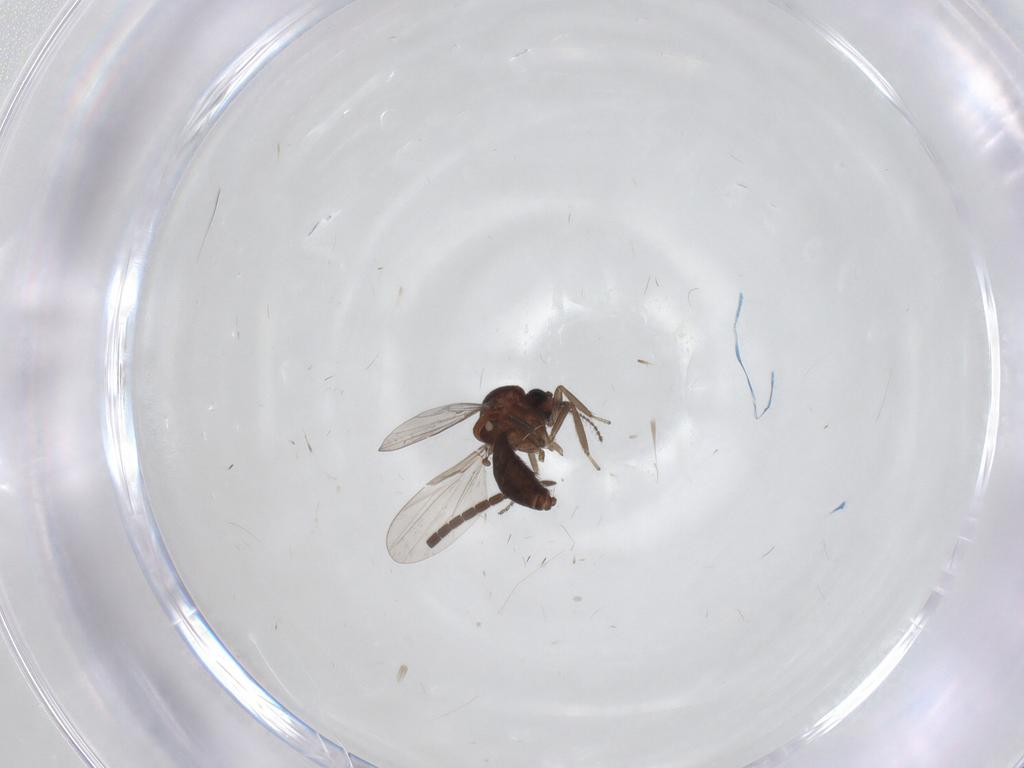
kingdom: Animalia
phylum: Arthropoda
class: Insecta
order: Diptera
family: Ceratopogonidae
